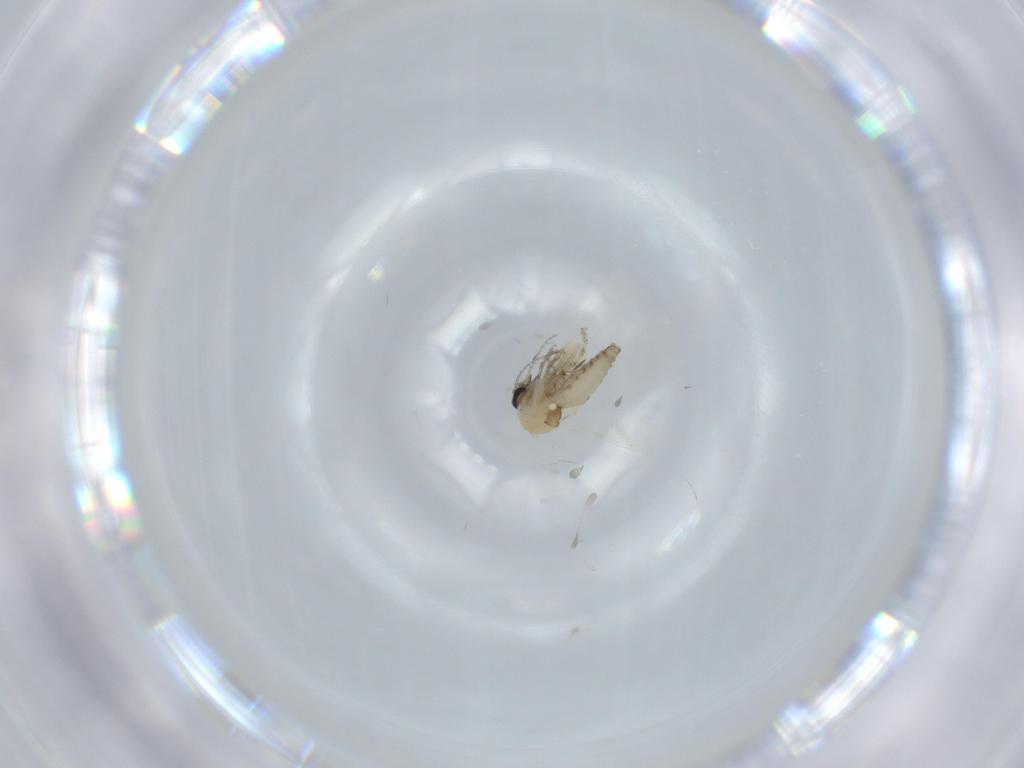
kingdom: Animalia
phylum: Arthropoda
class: Insecta
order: Diptera
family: Ceratopogonidae
